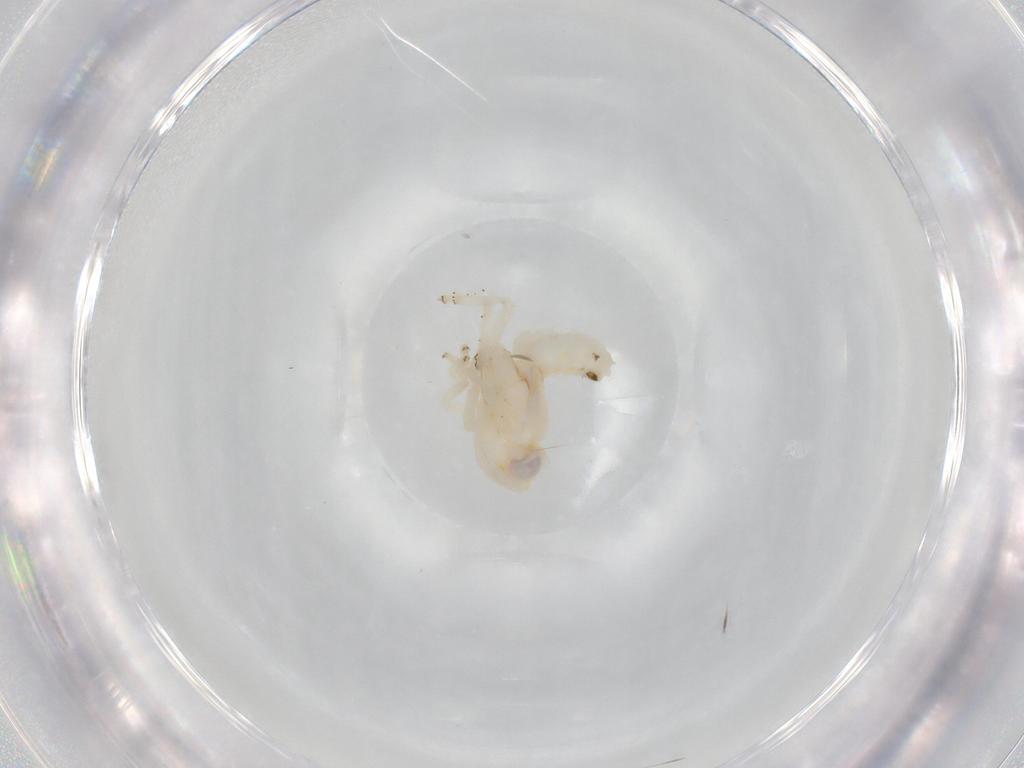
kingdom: Animalia
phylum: Arthropoda
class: Insecta
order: Hemiptera
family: Nogodinidae
